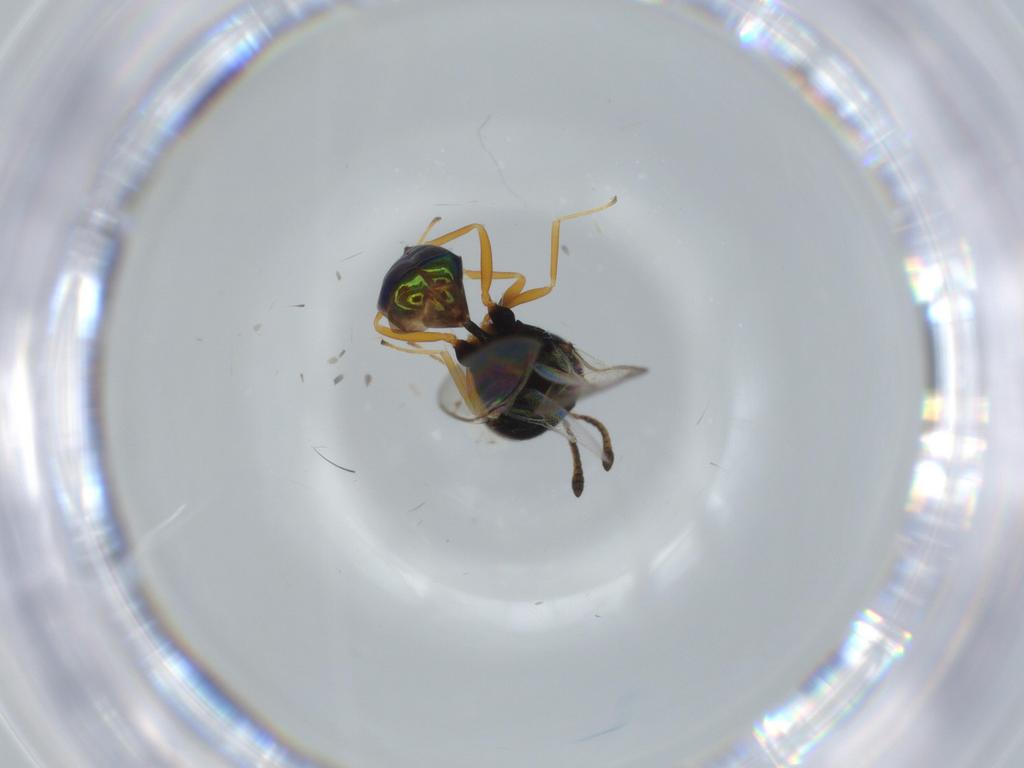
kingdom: Animalia
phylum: Arthropoda
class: Insecta
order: Hymenoptera
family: Pteromalidae
